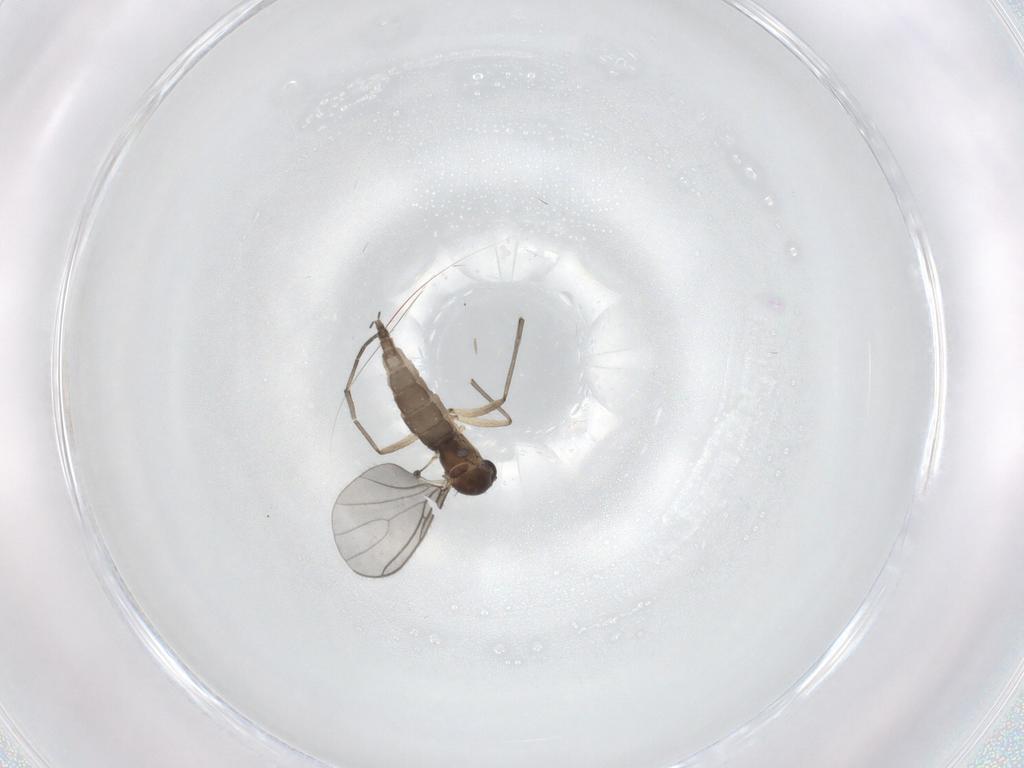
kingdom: Animalia
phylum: Arthropoda
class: Insecta
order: Diptera
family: Sciaridae
